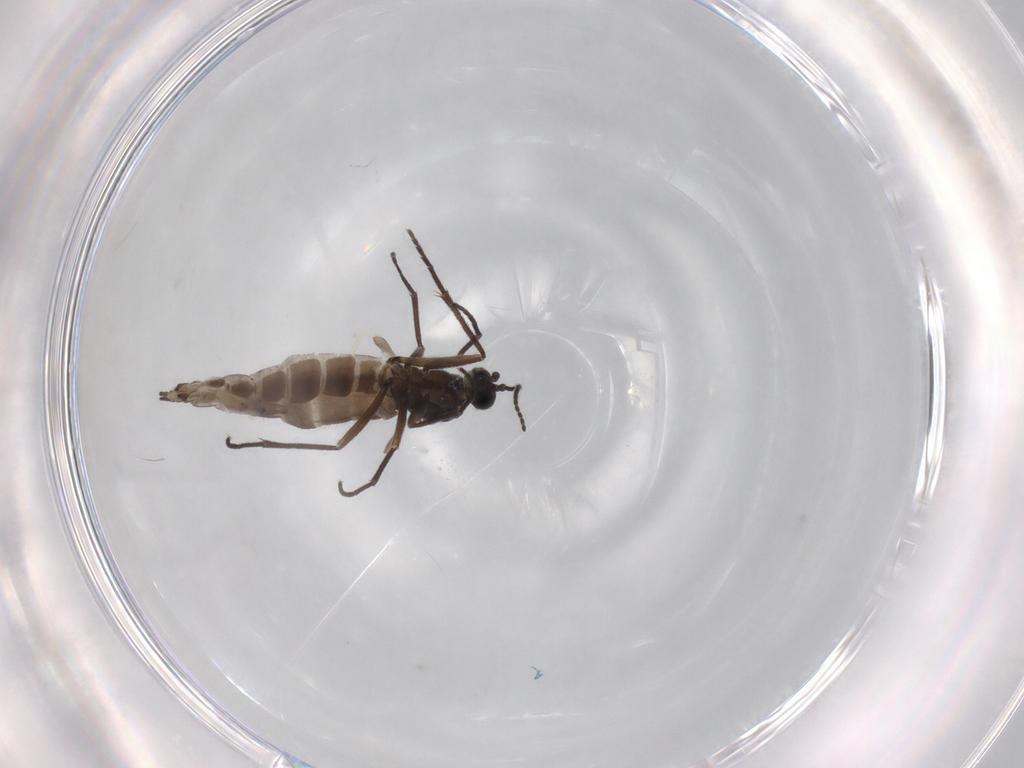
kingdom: Animalia
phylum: Arthropoda
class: Insecta
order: Diptera
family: Sciaridae
